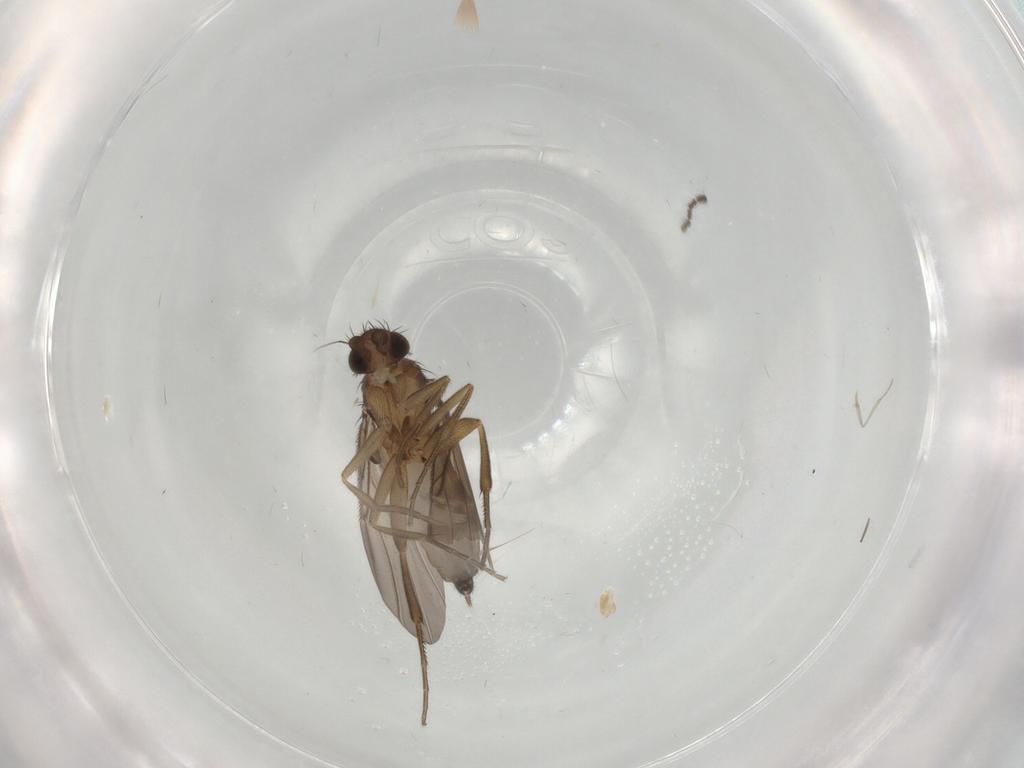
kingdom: Animalia
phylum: Arthropoda
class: Insecta
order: Diptera
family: Phoridae
